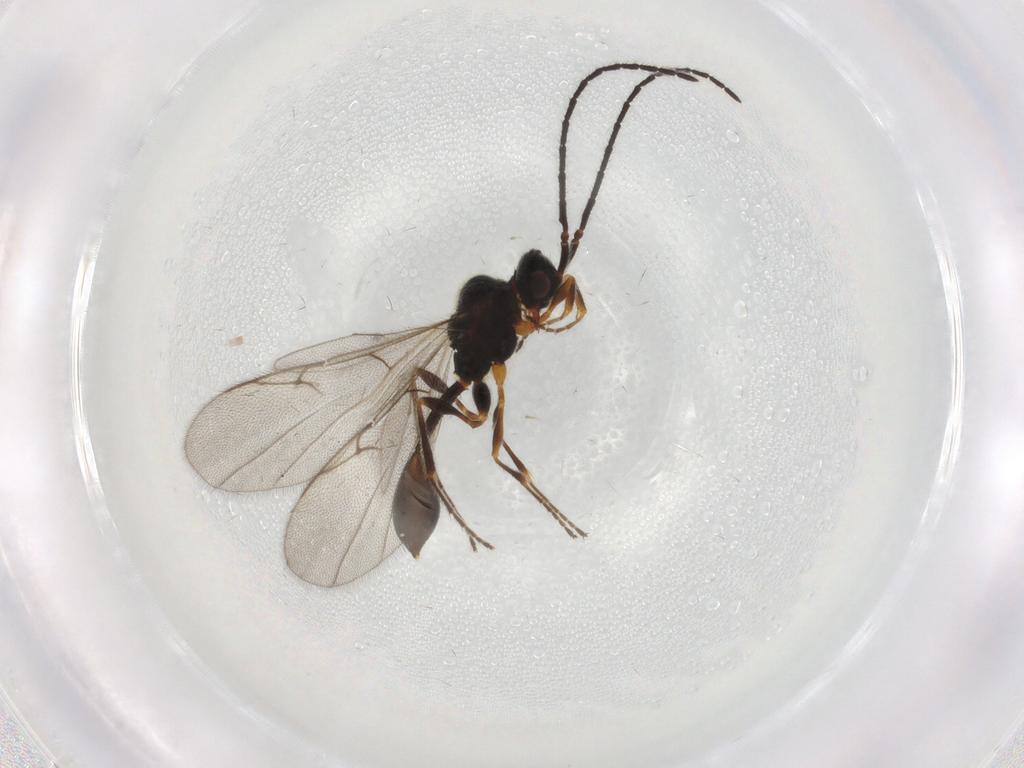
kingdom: Animalia
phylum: Arthropoda
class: Insecta
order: Hymenoptera
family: Diapriidae
